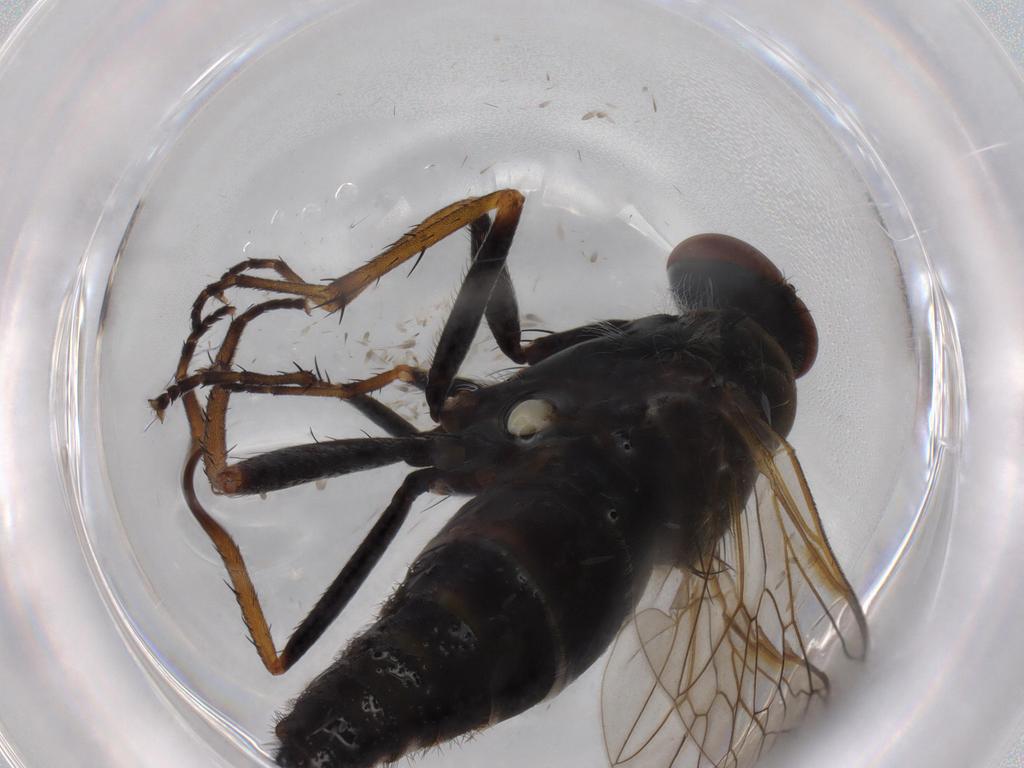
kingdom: Animalia
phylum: Arthropoda
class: Insecta
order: Diptera
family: Therevidae
